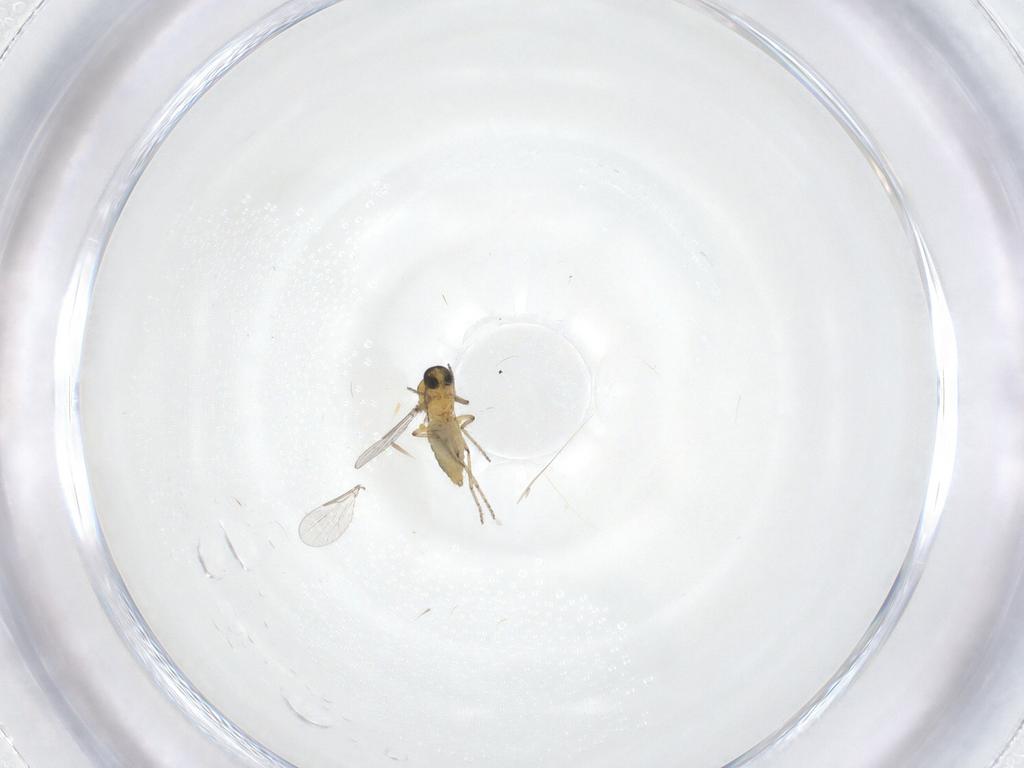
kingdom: Animalia
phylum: Arthropoda
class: Insecta
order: Diptera
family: Ceratopogonidae
